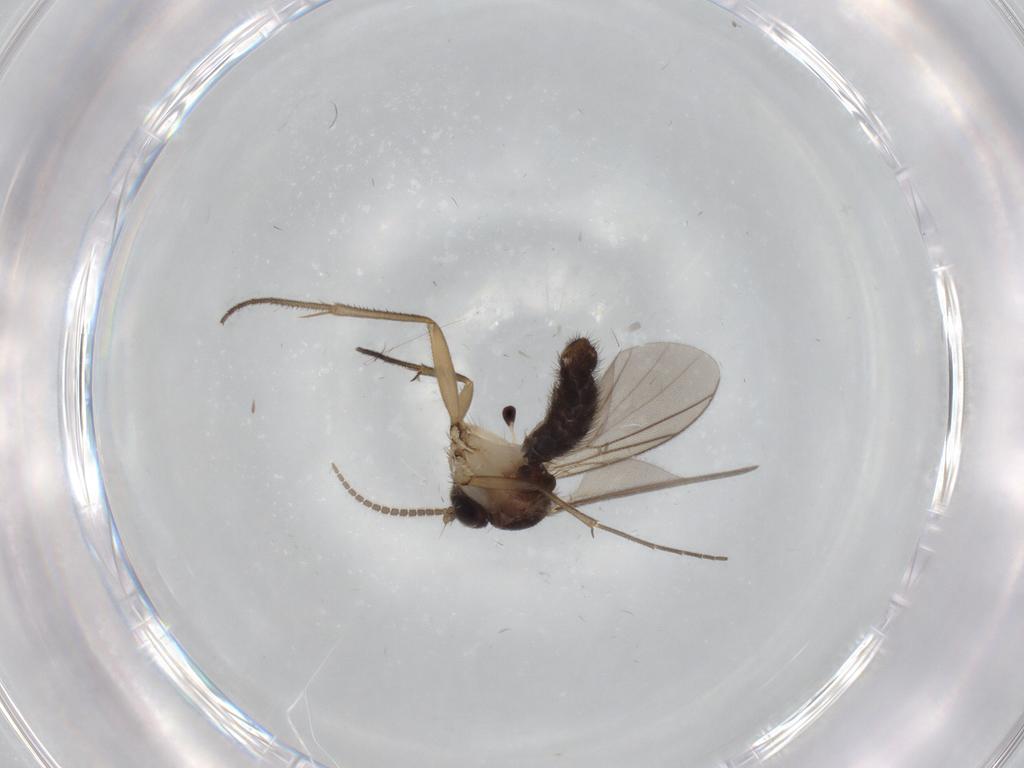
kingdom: Animalia
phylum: Arthropoda
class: Insecta
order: Diptera
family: Mycetophilidae
